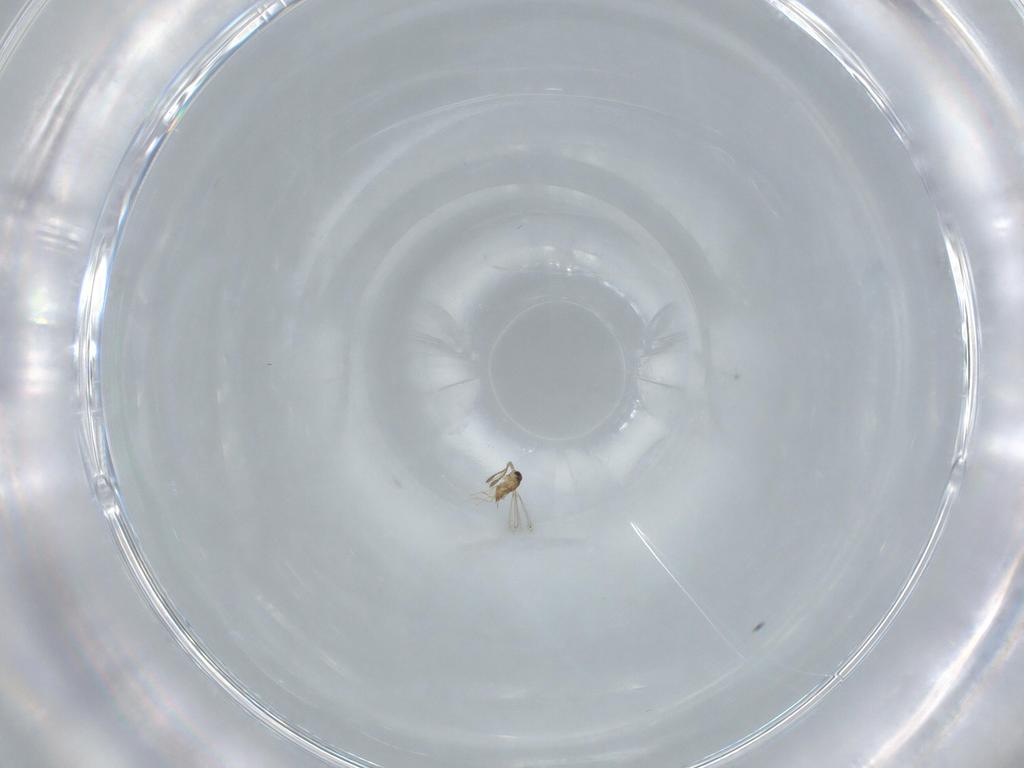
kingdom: Animalia
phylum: Arthropoda
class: Insecta
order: Hymenoptera
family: Mymaridae
